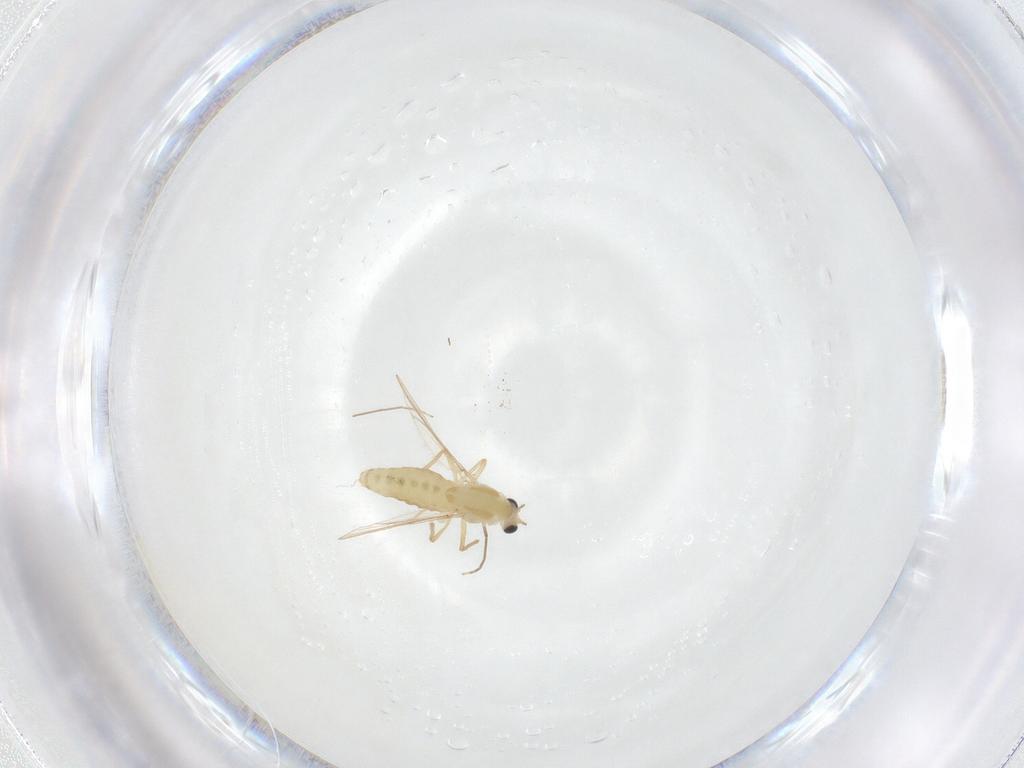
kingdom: Animalia
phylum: Arthropoda
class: Insecta
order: Diptera
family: Chironomidae
